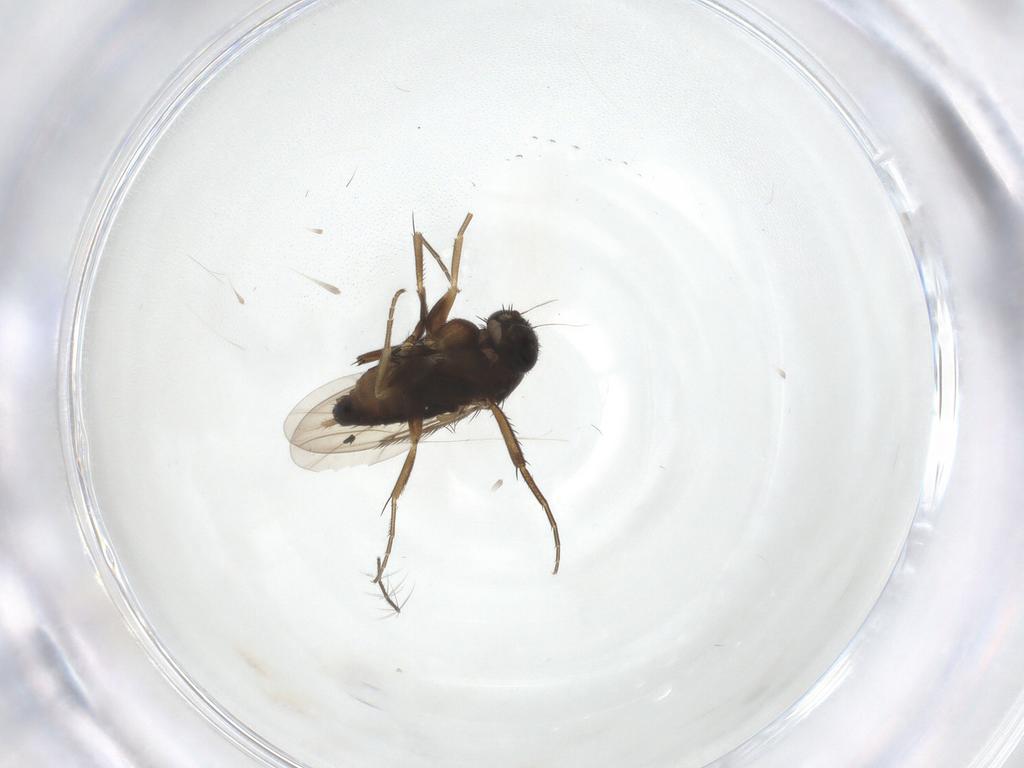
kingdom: Animalia
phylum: Arthropoda
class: Insecta
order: Diptera
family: Phoridae
